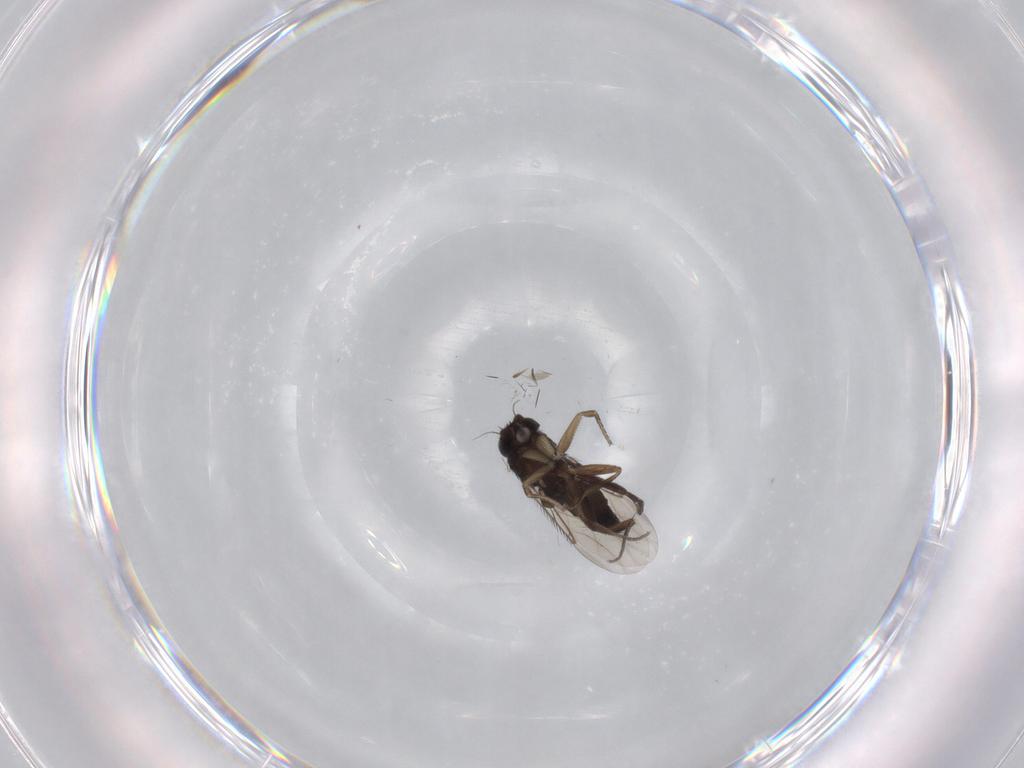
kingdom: Animalia
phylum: Arthropoda
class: Insecta
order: Diptera
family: Phoridae
